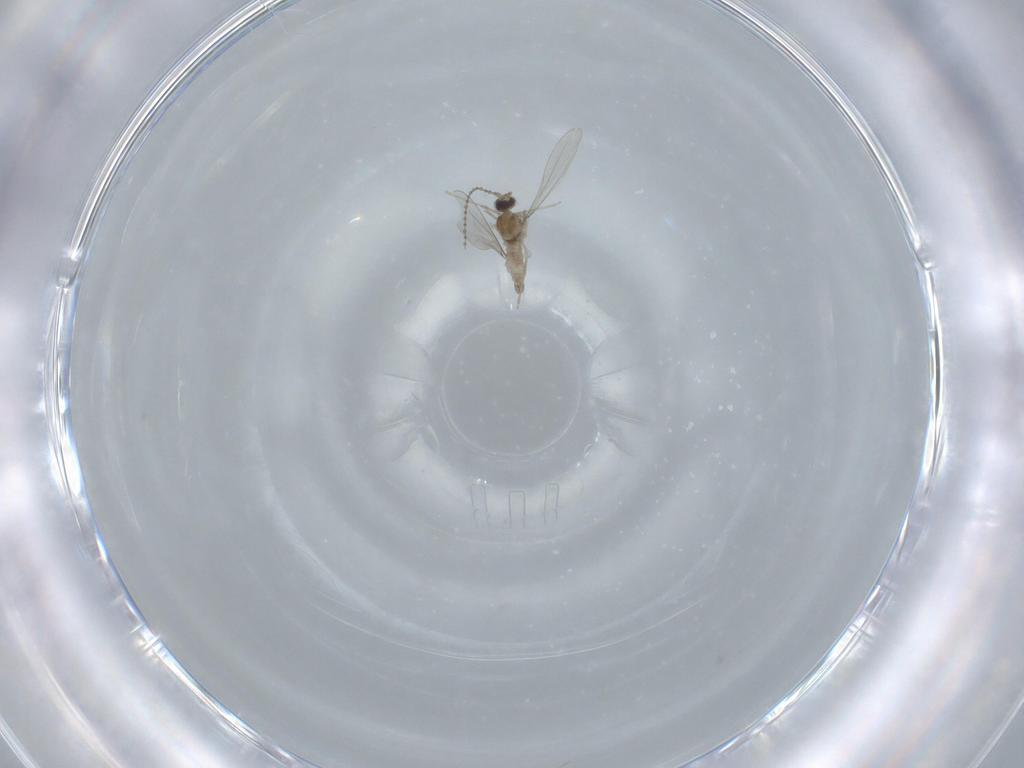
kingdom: Animalia
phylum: Arthropoda
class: Insecta
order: Diptera
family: Cecidomyiidae
